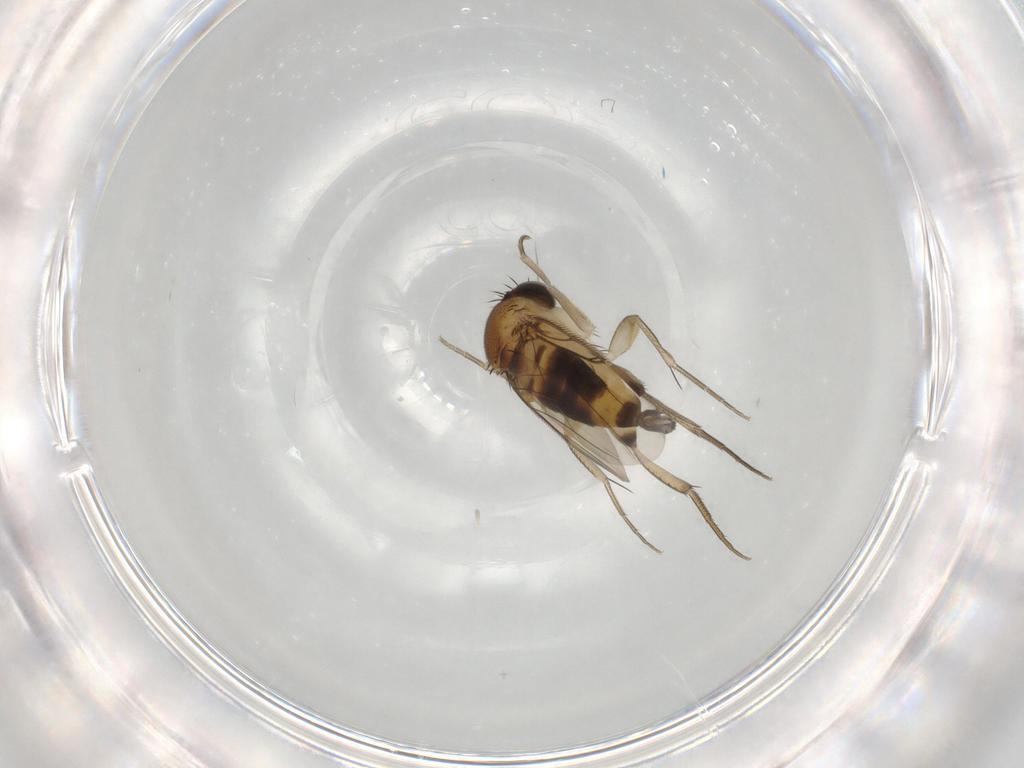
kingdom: Animalia
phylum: Arthropoda
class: Insecta
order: Diptera
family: Phoridae
